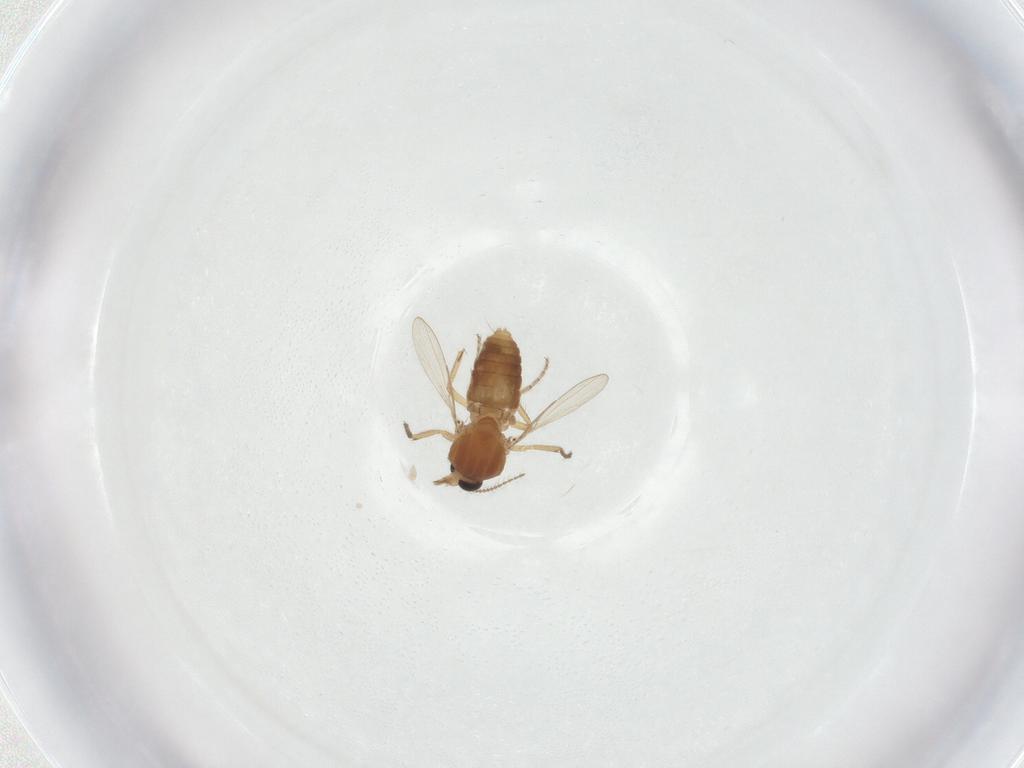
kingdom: Animalia
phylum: Arthropoda
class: Insecta
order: Diptera
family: Ceratopogonidae
